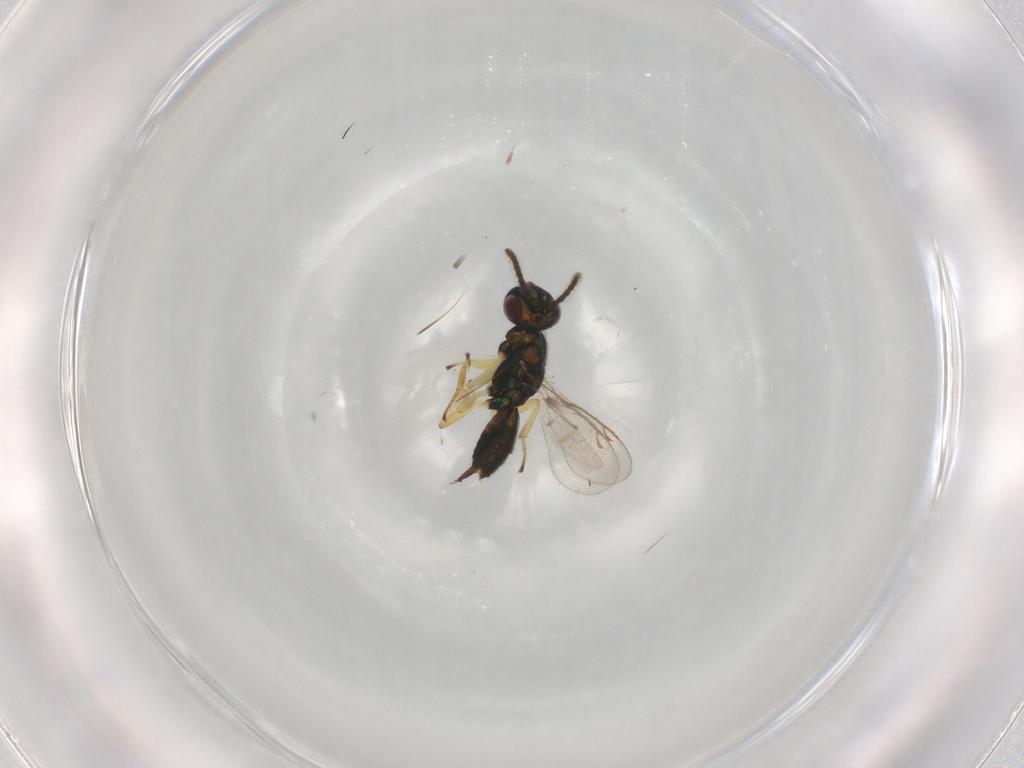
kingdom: Animalia
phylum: Arthropoda
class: Insecta
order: Hymenoptera
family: Eupelmidae
